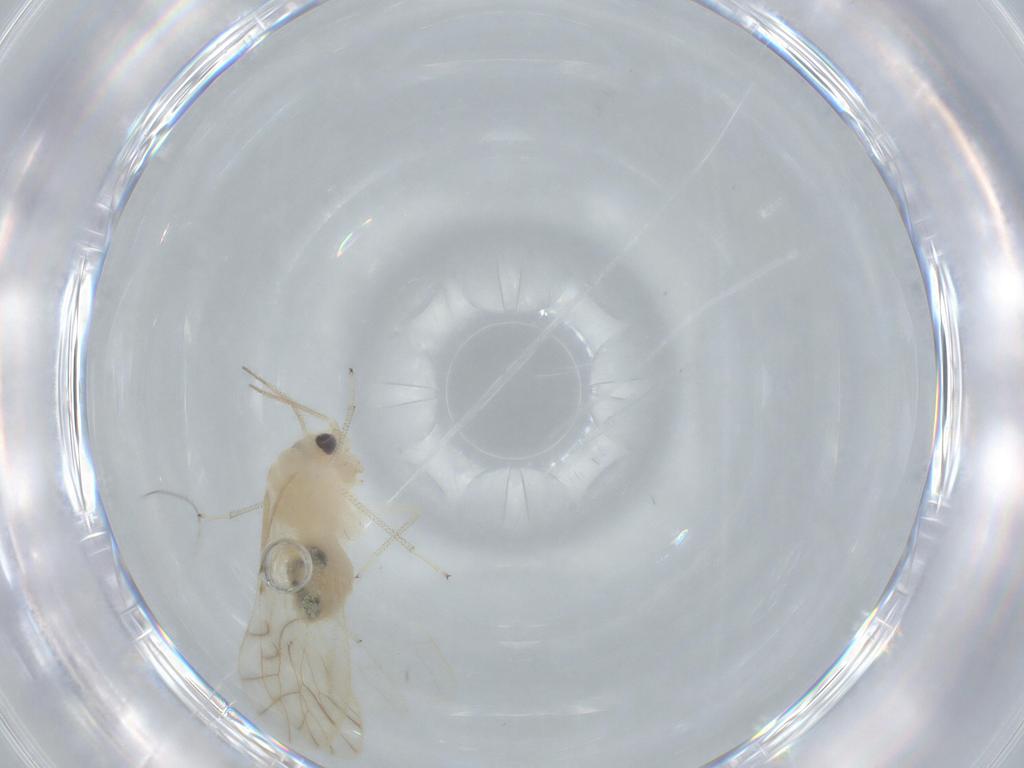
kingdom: Animalia
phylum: Arthropoda
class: Insecta
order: Psocodea
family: Caeciliusidae
